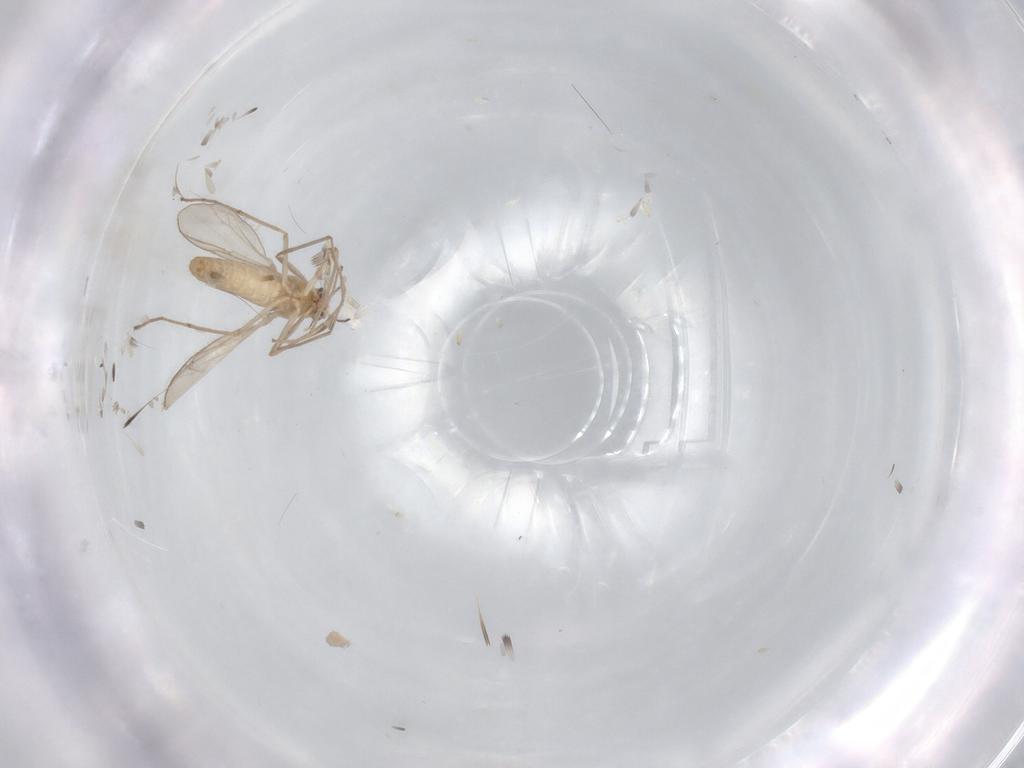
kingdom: Animalia
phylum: Arthropoda
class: Insecta
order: Diptera
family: Chironomidae
